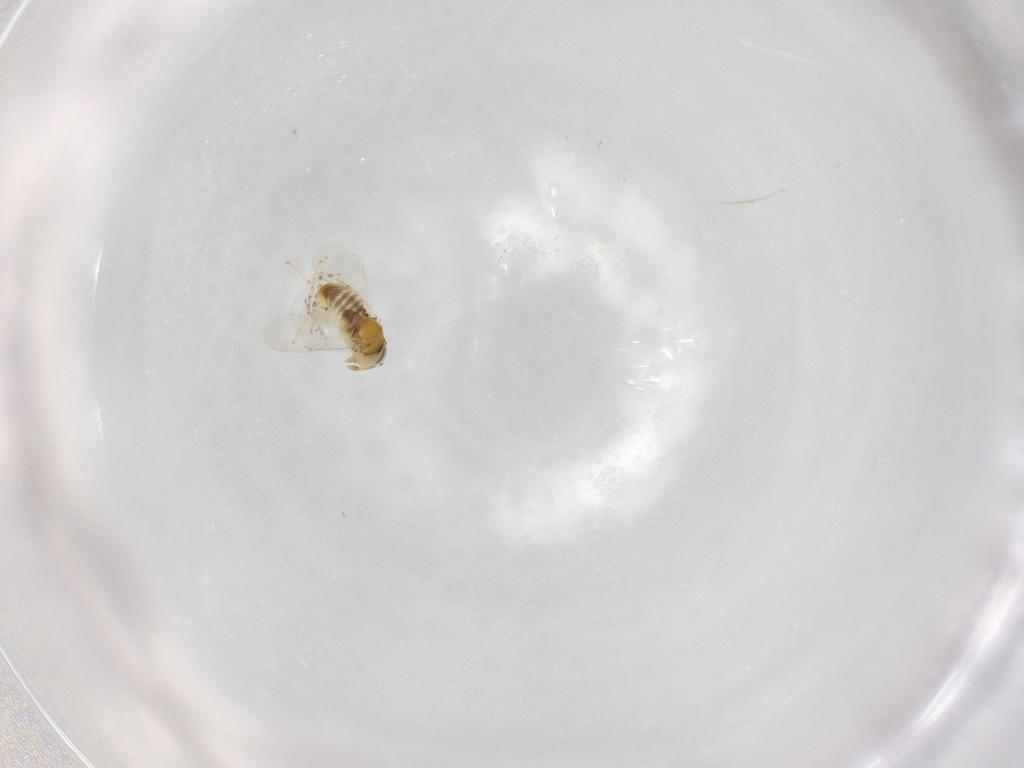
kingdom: Animalia
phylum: Arthropoda
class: Insecta
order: Hymenoptera
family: Encyrtidae
